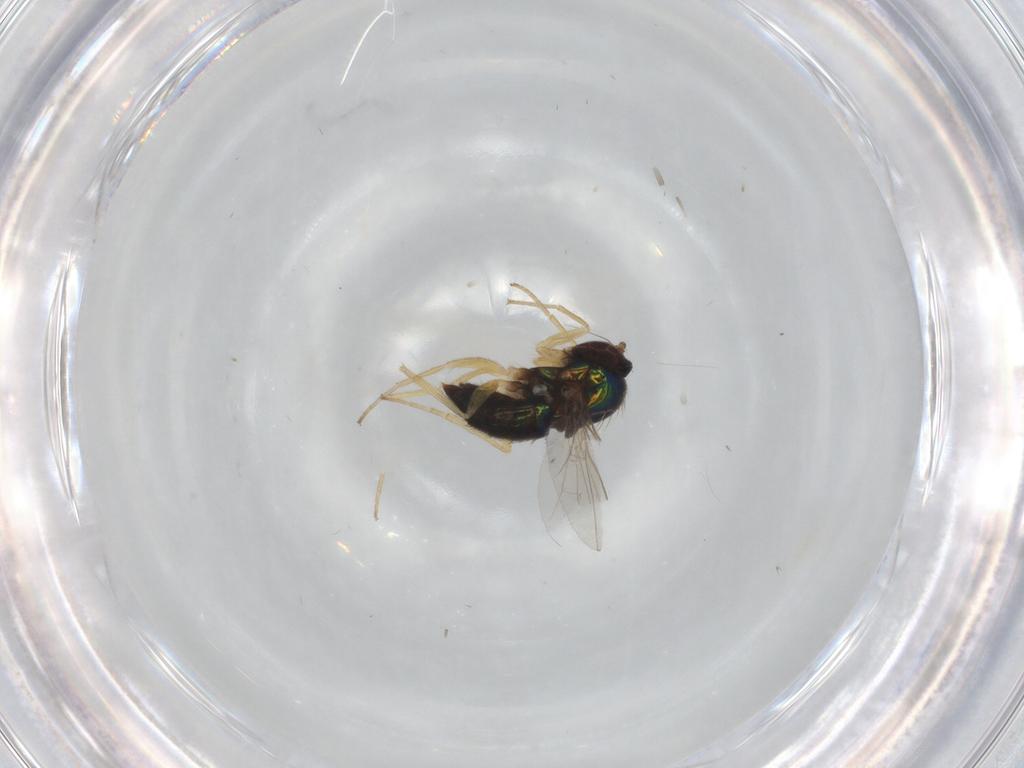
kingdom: Animalia
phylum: Arthropoda
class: Insecta
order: Diptera
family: Dolichopodidae
